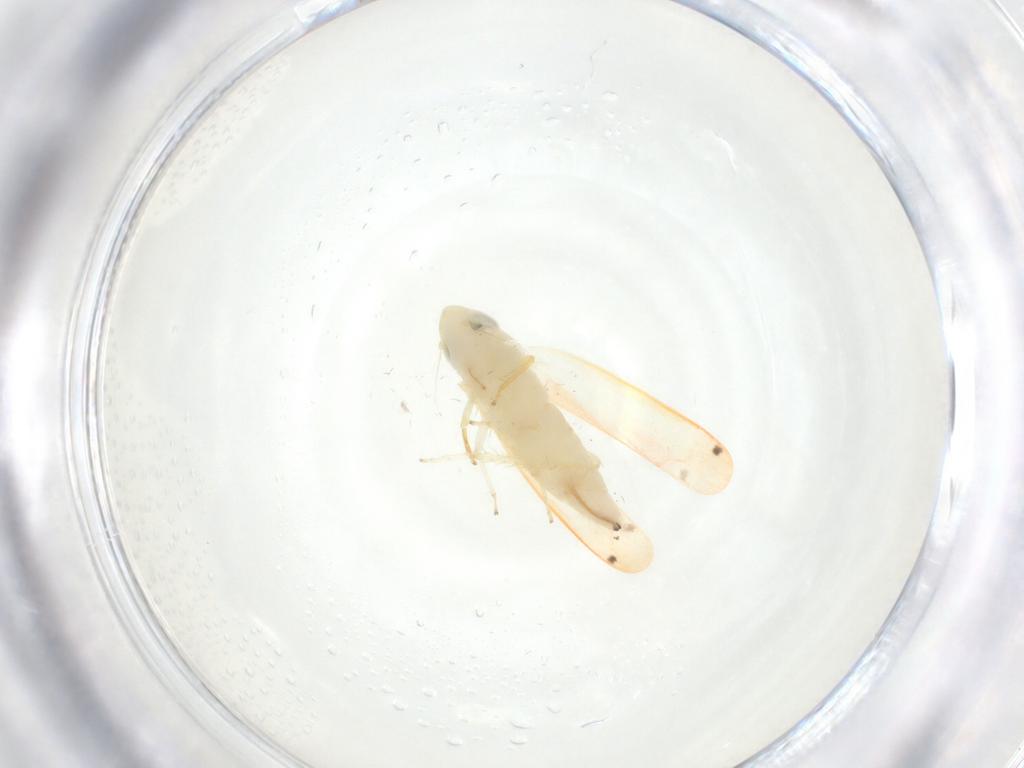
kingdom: Animalia
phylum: Arthropoda
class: Insecta
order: Hemiptera
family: Cicadellidae
